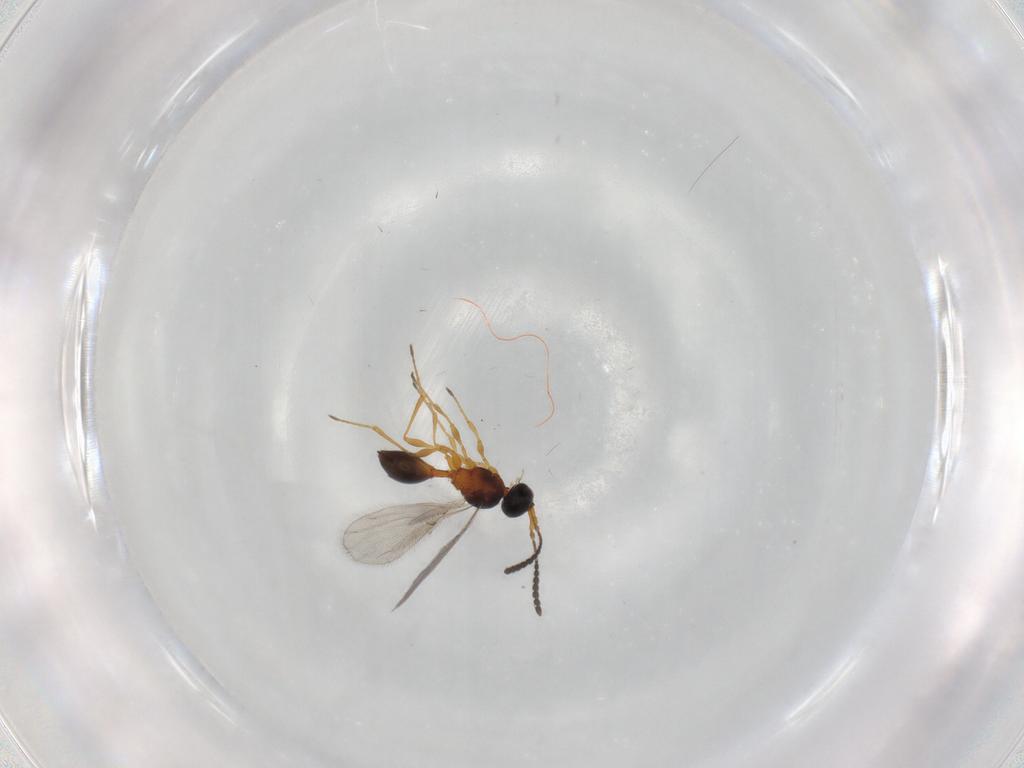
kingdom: Animalia
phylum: Arthropoda
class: Insecta
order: Hymenoptera
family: Diapriidae
